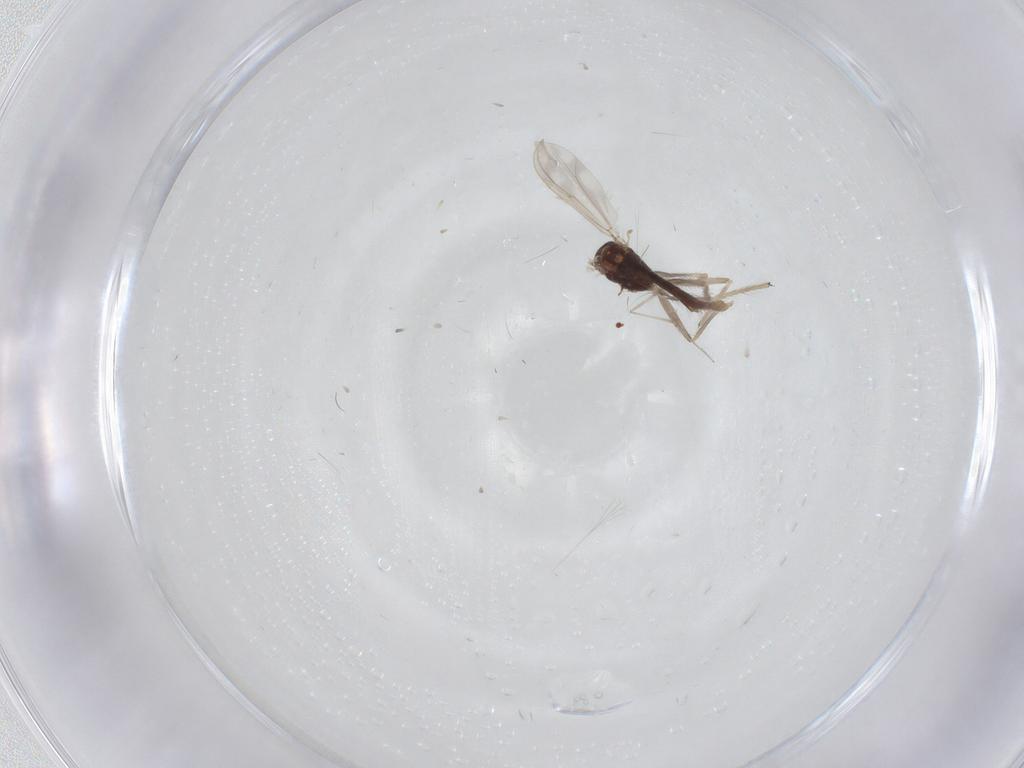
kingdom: Animalia
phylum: Arthropoda
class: Insecta
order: Diptera
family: Chironomidae
